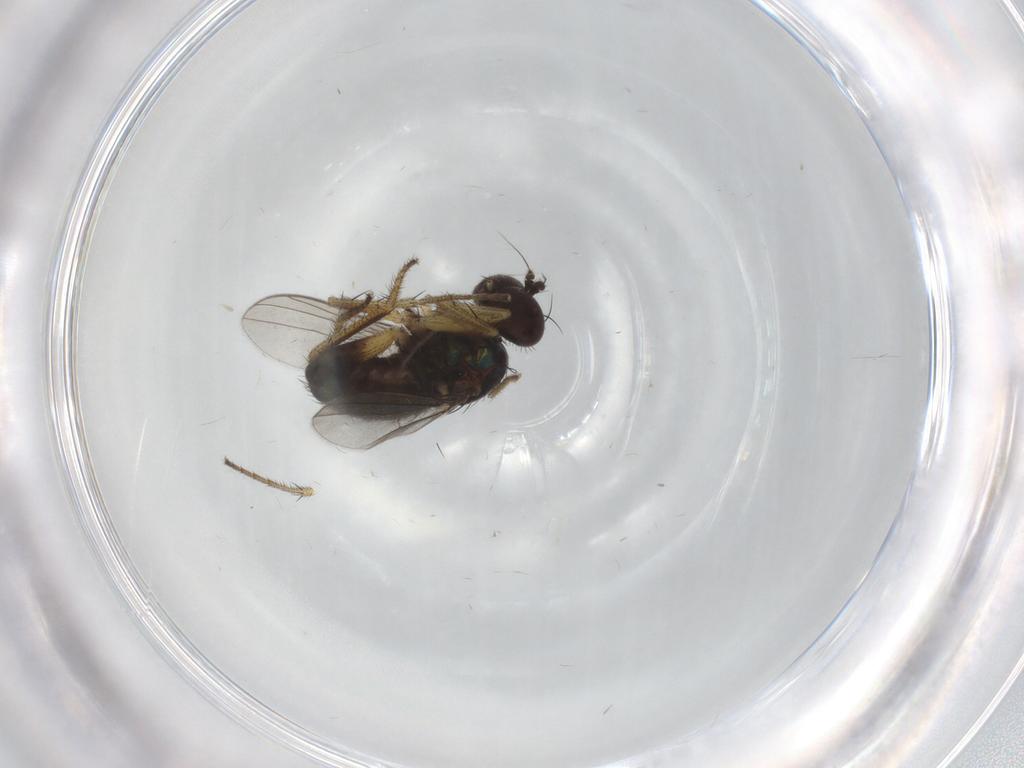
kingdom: Animalia
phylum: Arthropoda
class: Insecta
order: Diptera
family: Dolichopodidae
